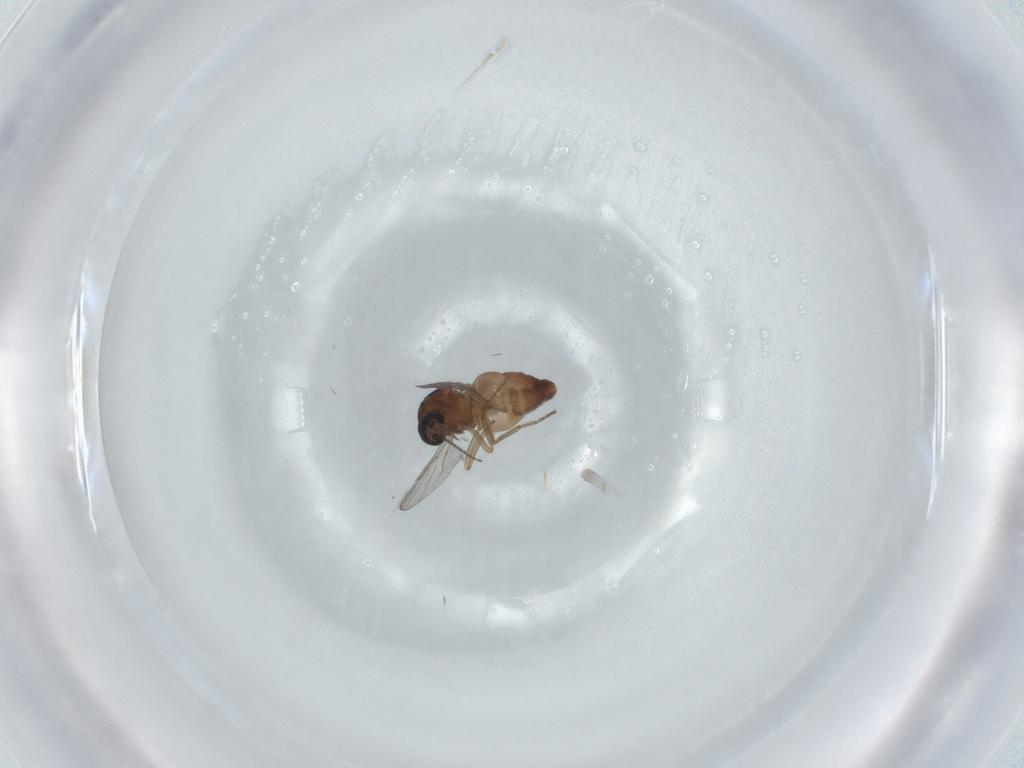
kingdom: Animalia
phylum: Arthropoda
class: Insecta
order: Diptera
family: Ceratopogonidae
